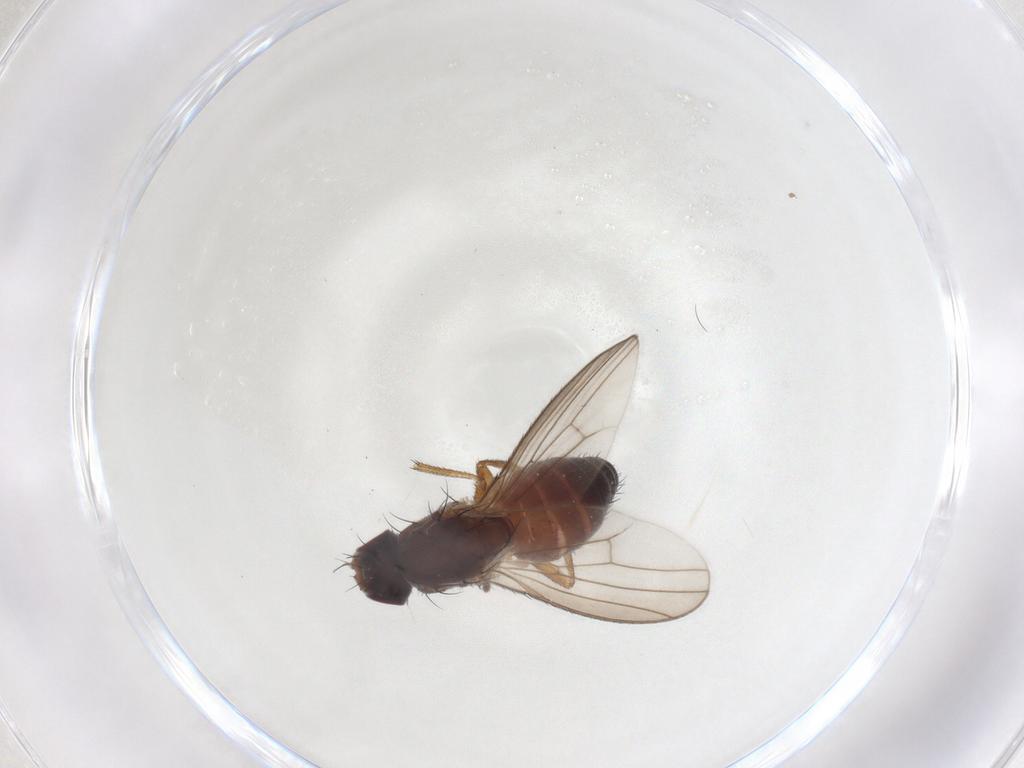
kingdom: Animalia
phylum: Arthropoda
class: Insecta
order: Diptera
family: Heleomyzidae
